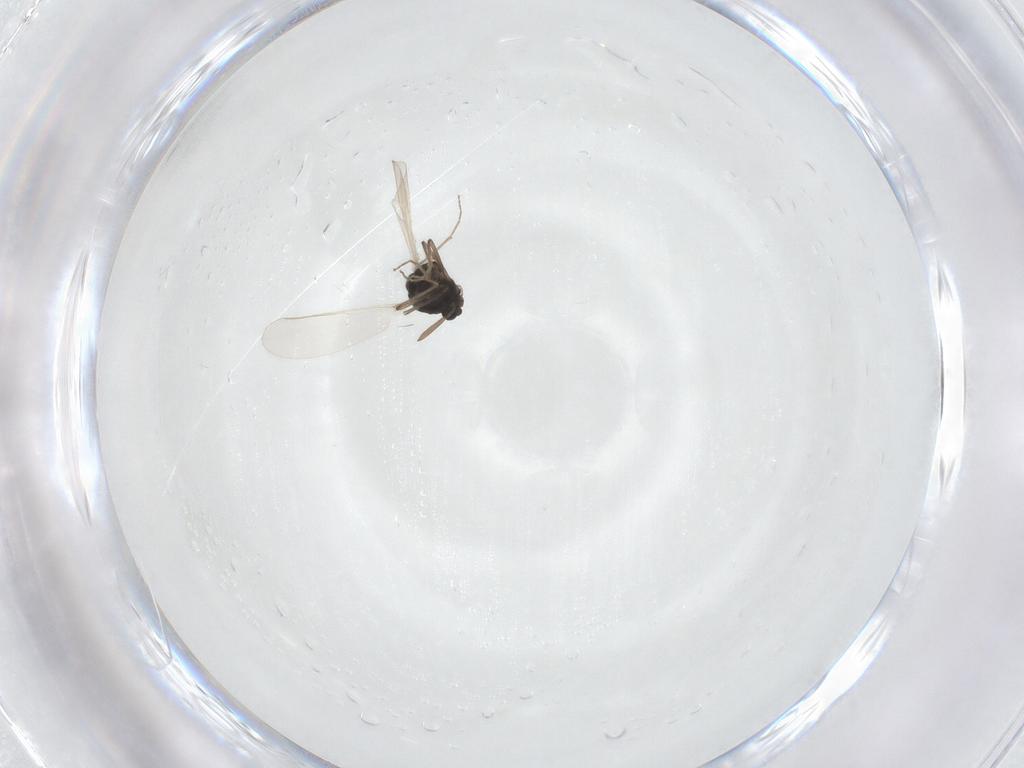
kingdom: Animalia
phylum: Arthropoda
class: Insecta
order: Diptera
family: Chironomidae
